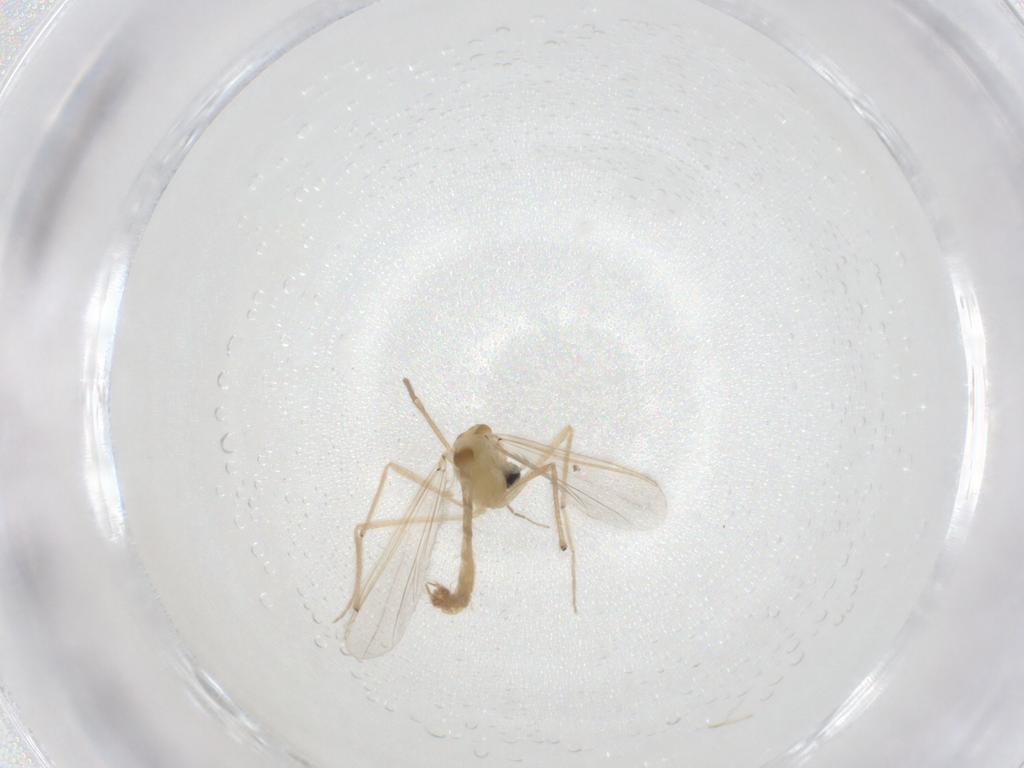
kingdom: Animalia
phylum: Arthropoda
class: Insecta
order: Diptera
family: Chironomidae
